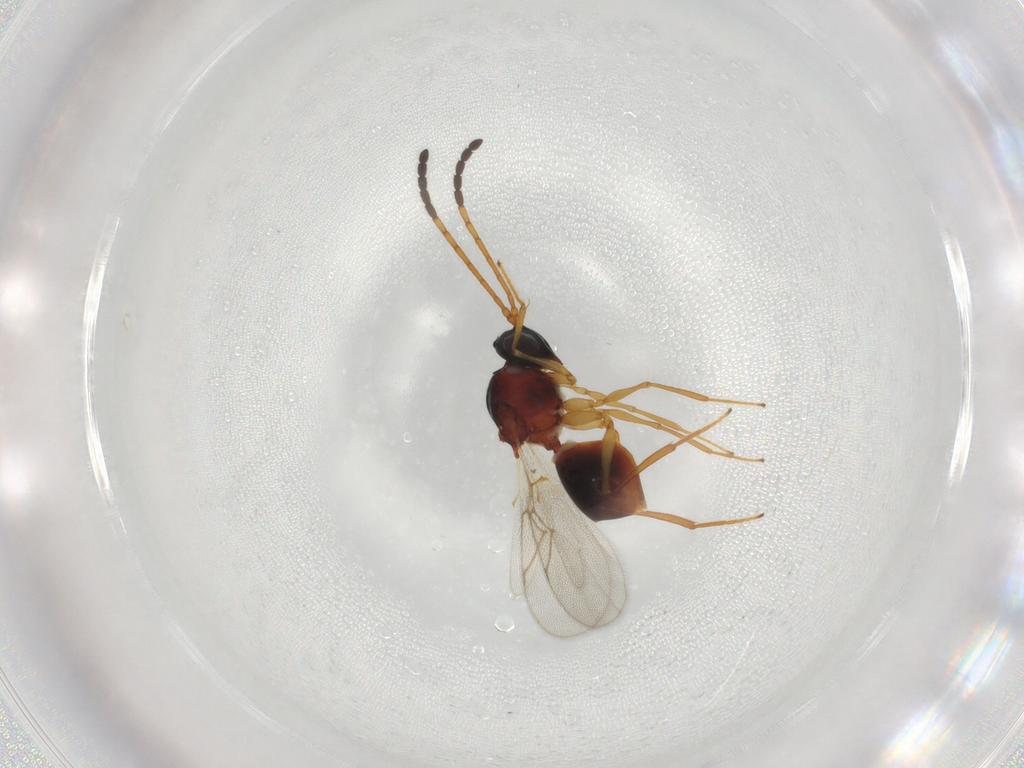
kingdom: Animalia
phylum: Arthropoda
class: Insecta
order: Hymenoptera
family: Figitidae
